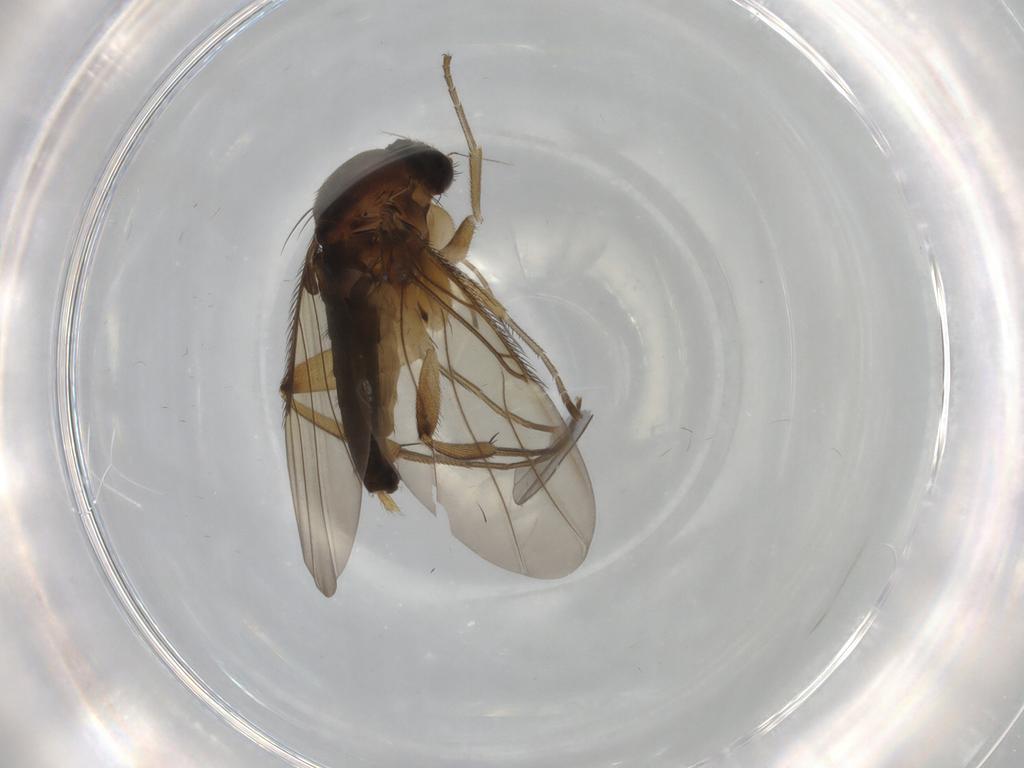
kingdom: Animalia
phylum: Arthropoda
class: Insecta
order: Diptera
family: Phoridae
